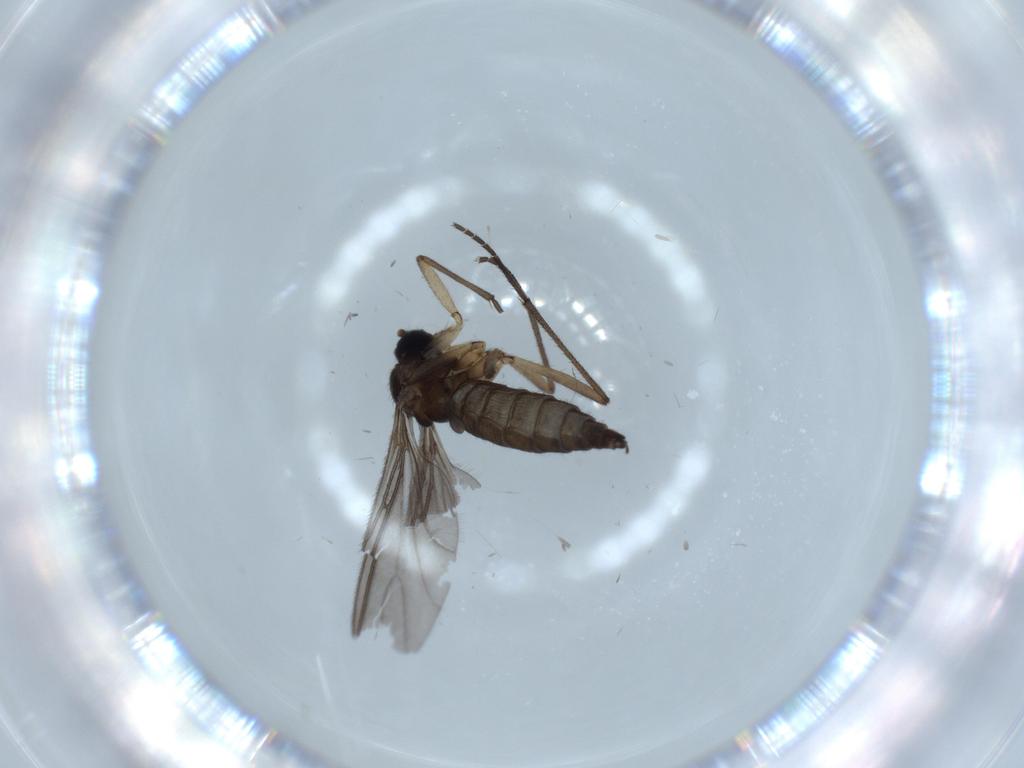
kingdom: Animalia
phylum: Arthropoda
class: Insecta
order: Diptera
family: Sciaridae
